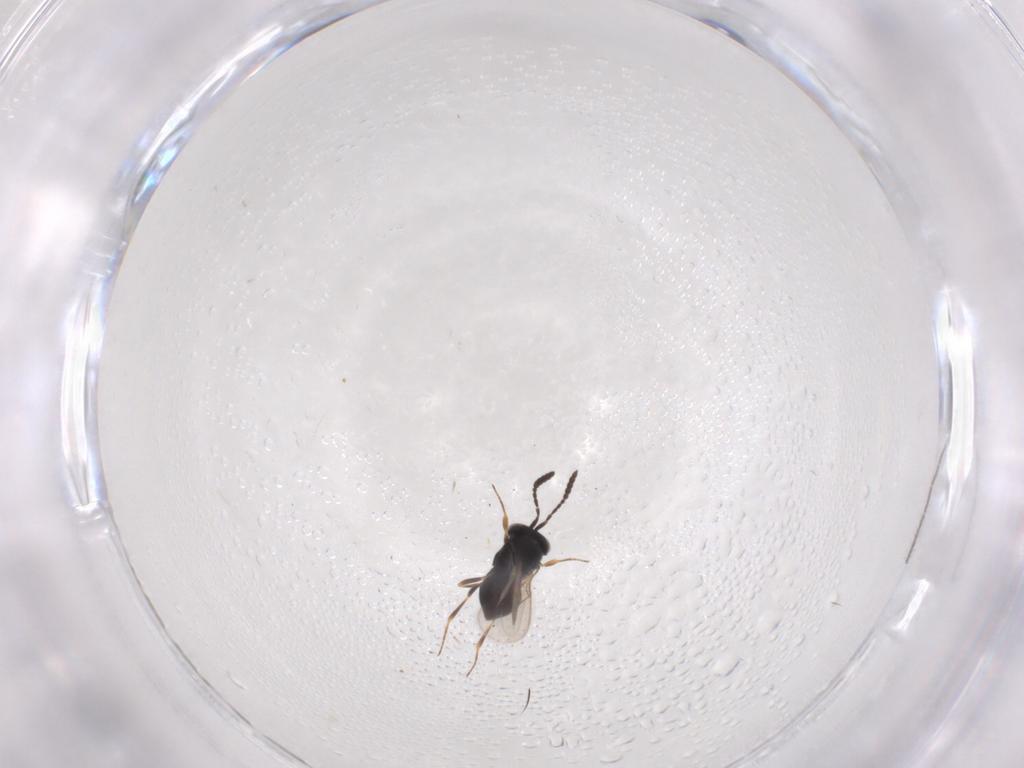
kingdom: Animalia
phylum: Arthropoda
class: Insecta
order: Hymenoptera
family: Scelionidae
